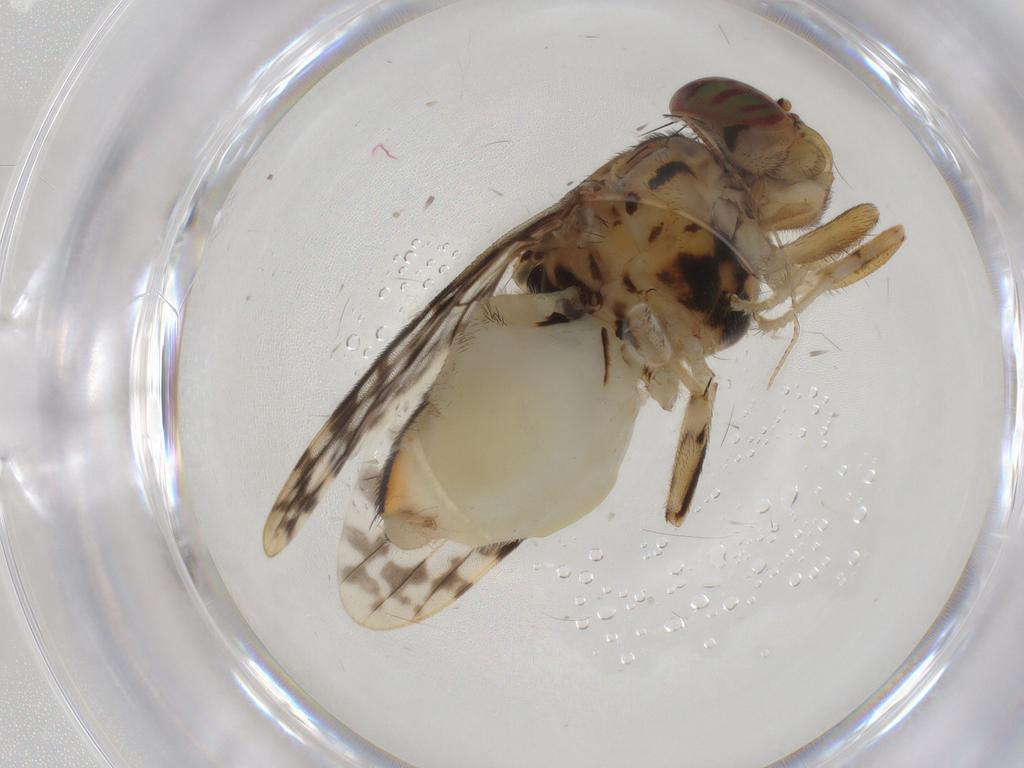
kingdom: Animalia
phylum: Arthropoda
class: Insecta
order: Diptera
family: Platystomatidae
